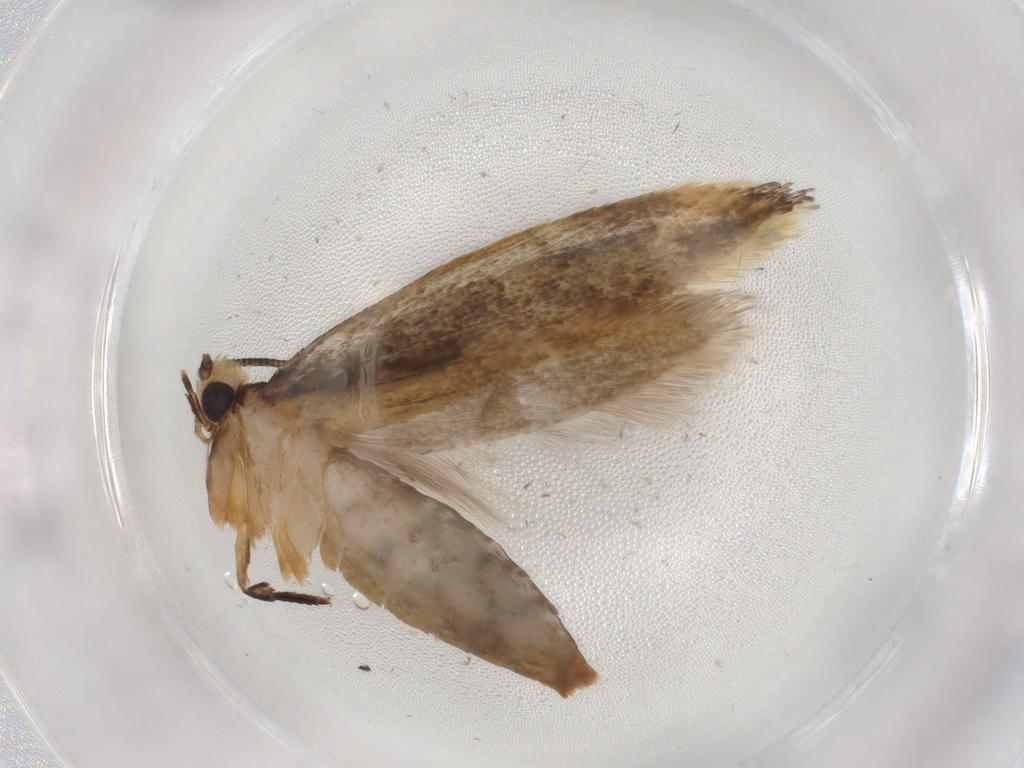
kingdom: Animalia
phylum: Arthropoda
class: Insecta
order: Lepidoptera
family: Tineidae
